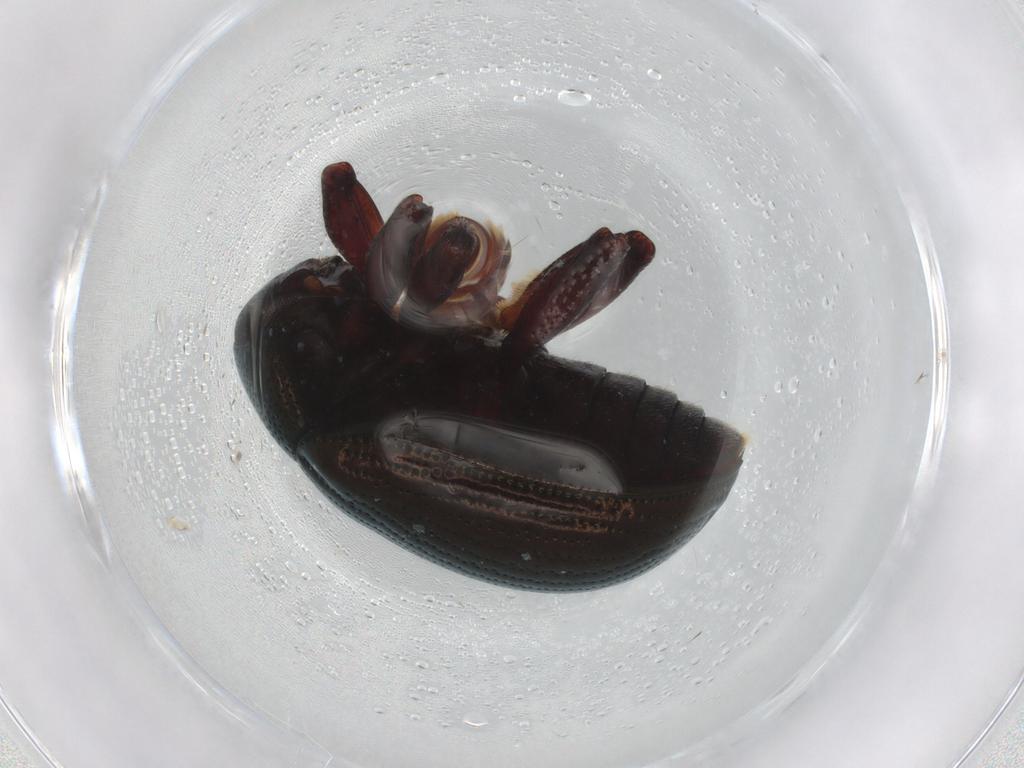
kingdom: Animalia
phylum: Arthropoda
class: Insecta
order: Coleoptera
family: Chrysomelidae
